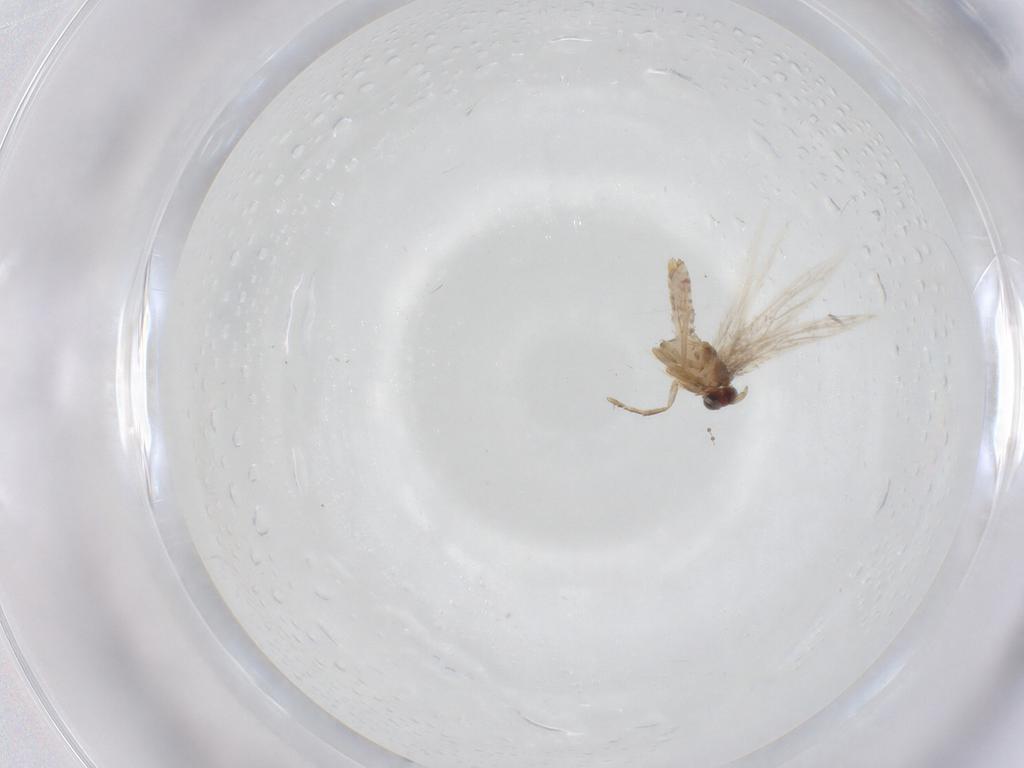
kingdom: Animalia
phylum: Arthropoda
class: Insecta
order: Lepidoptera
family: Nepticulidae
